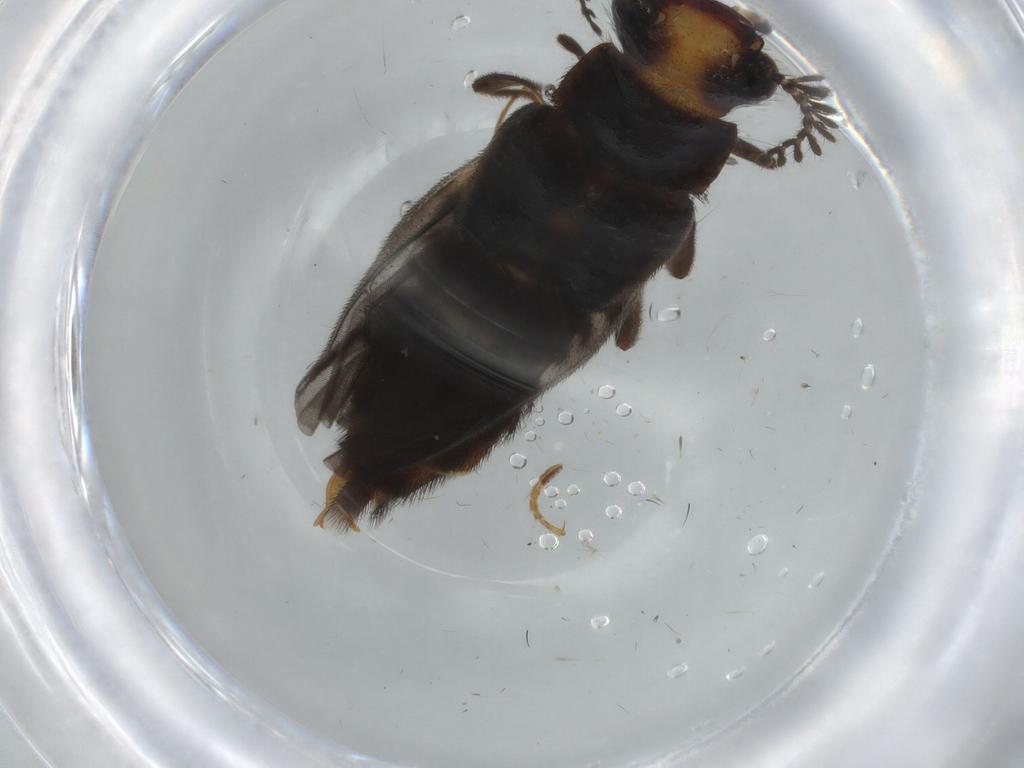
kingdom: Animalia
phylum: Arthropoda
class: Insecta
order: Coleoptera
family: Phengodidae
